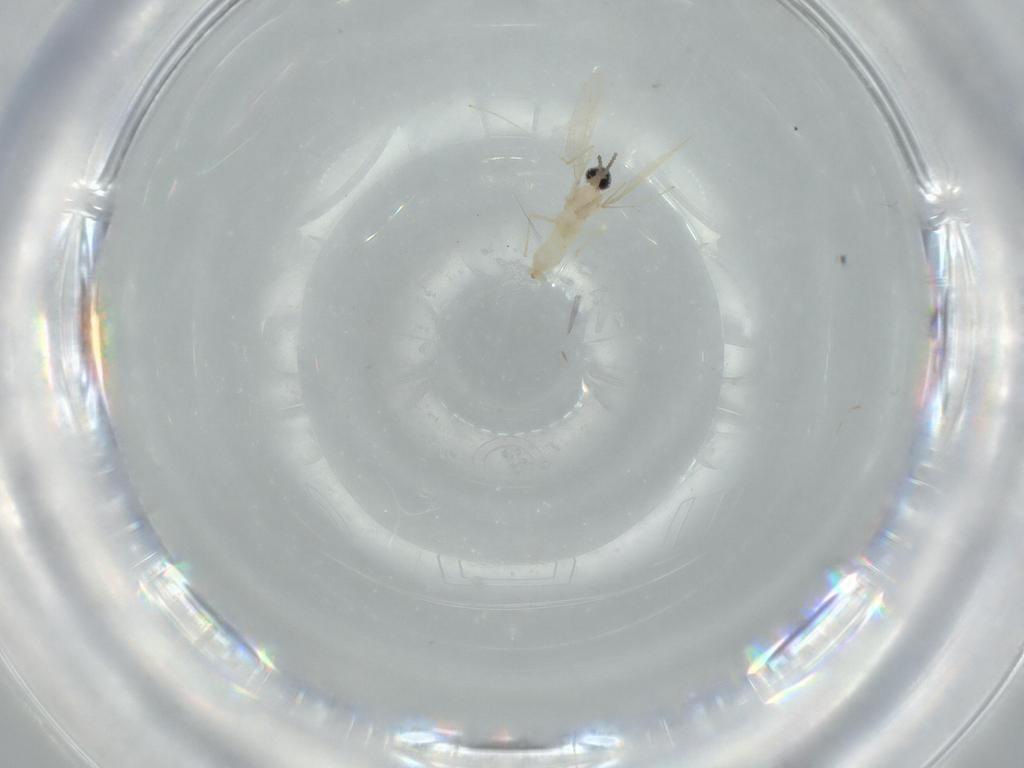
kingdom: Animalia
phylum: Arthropoda
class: Insecta
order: Diptera
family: Cecidomyiidae
